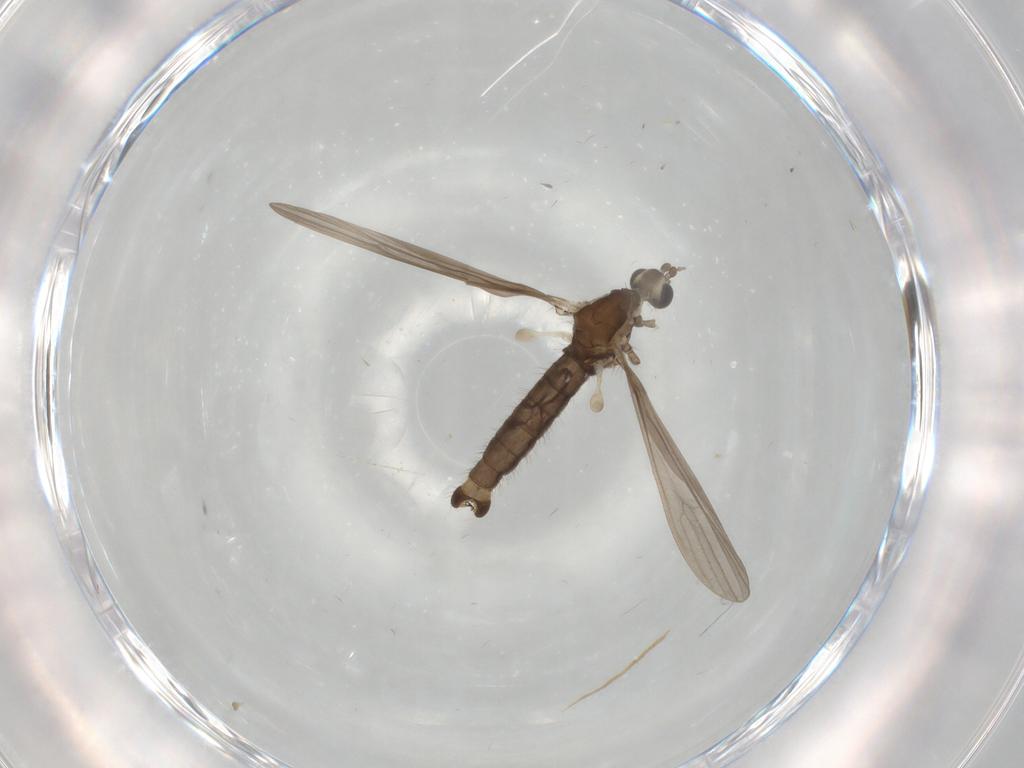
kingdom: Animalia
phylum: Arthropoda
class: Insecta
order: Diptera
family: Limoniidae
